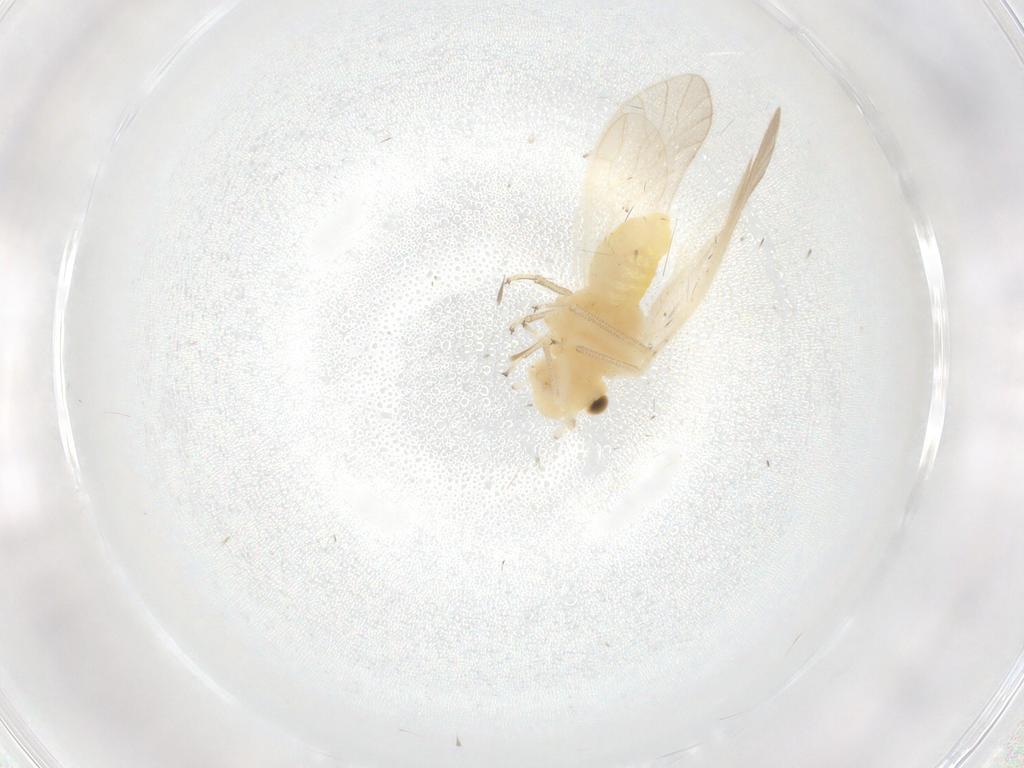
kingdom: Animalia
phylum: Arthropoda
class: Insecta
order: Psocodea
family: Caeciliusidae
